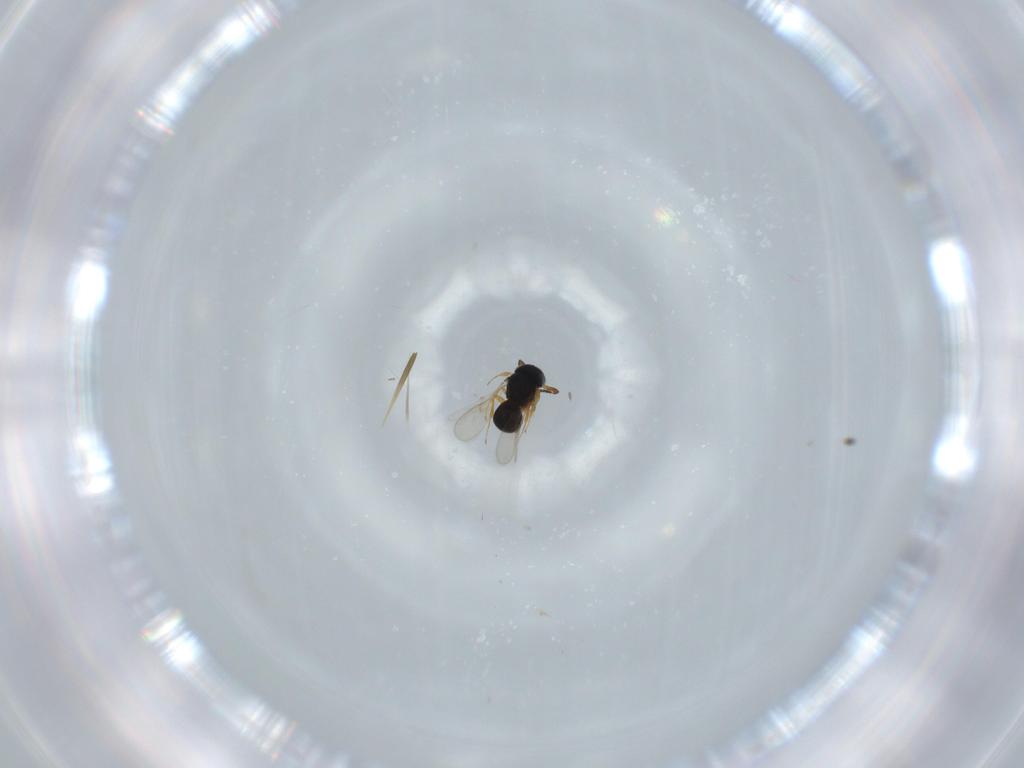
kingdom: Animalia
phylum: Arthropoda
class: Insecta
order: Hymenoptera
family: Scelionidae
